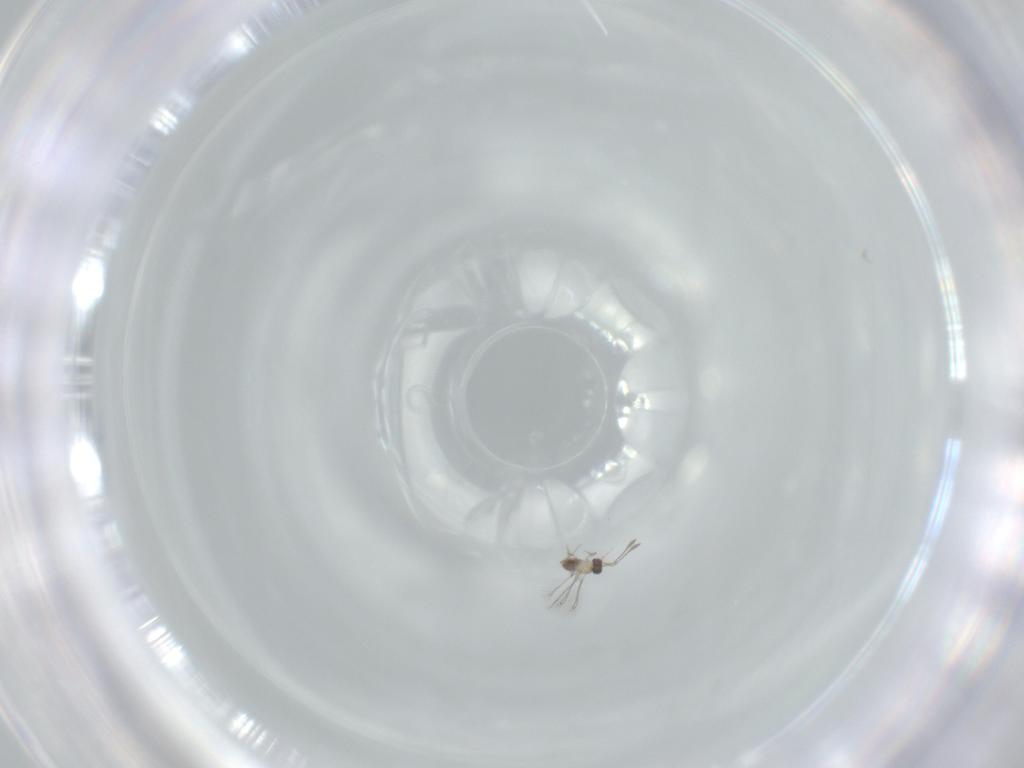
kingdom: Animalia
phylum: Arthropoda
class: Insecta
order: Hymenoptera
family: Mymaridae
